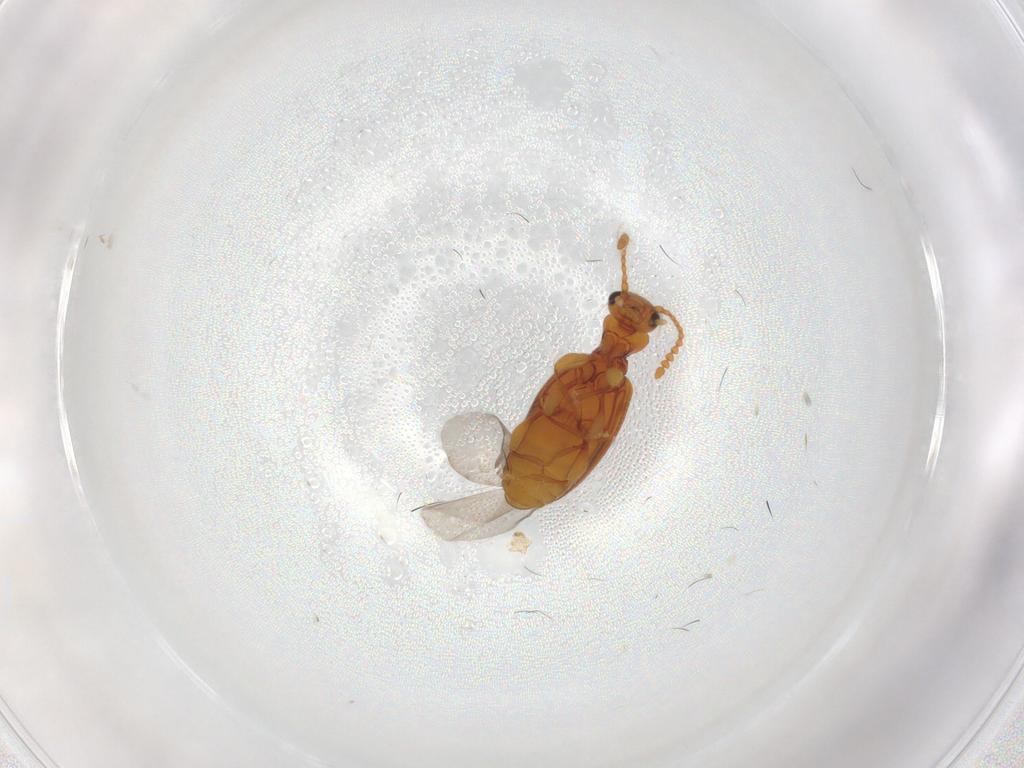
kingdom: Animalia
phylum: Arthropoda
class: Insecta
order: Coleoptera
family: Anthicidae
